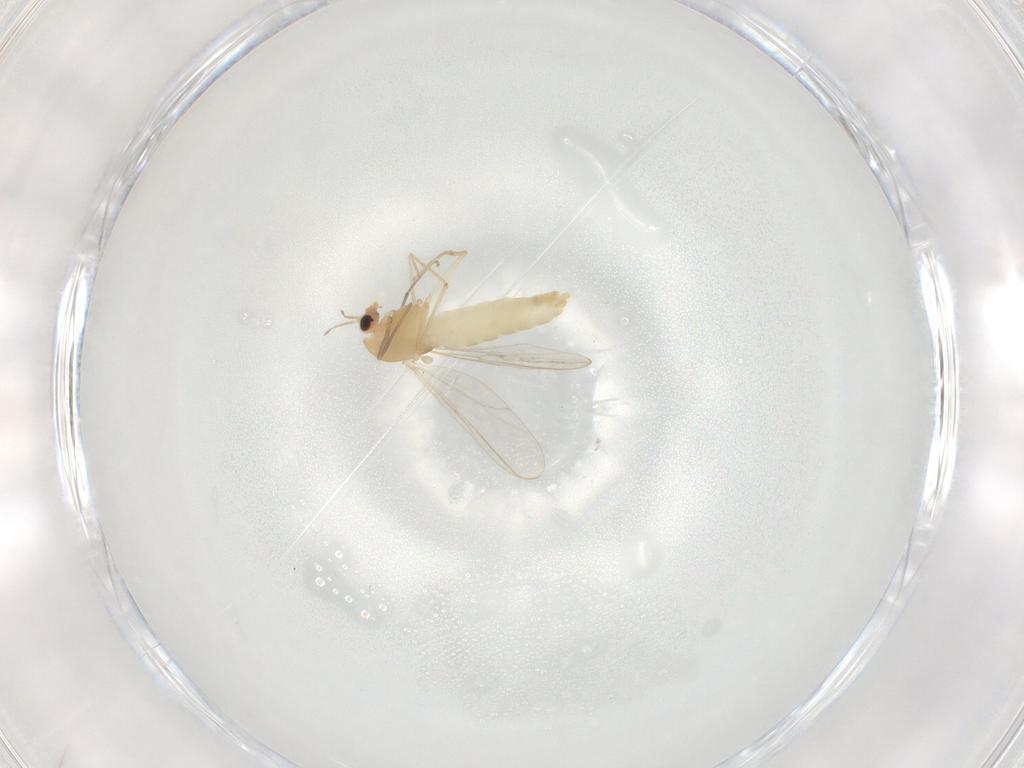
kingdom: Animalia
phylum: Arthropoda
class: Insecta
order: Diptera
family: Chironomidae
